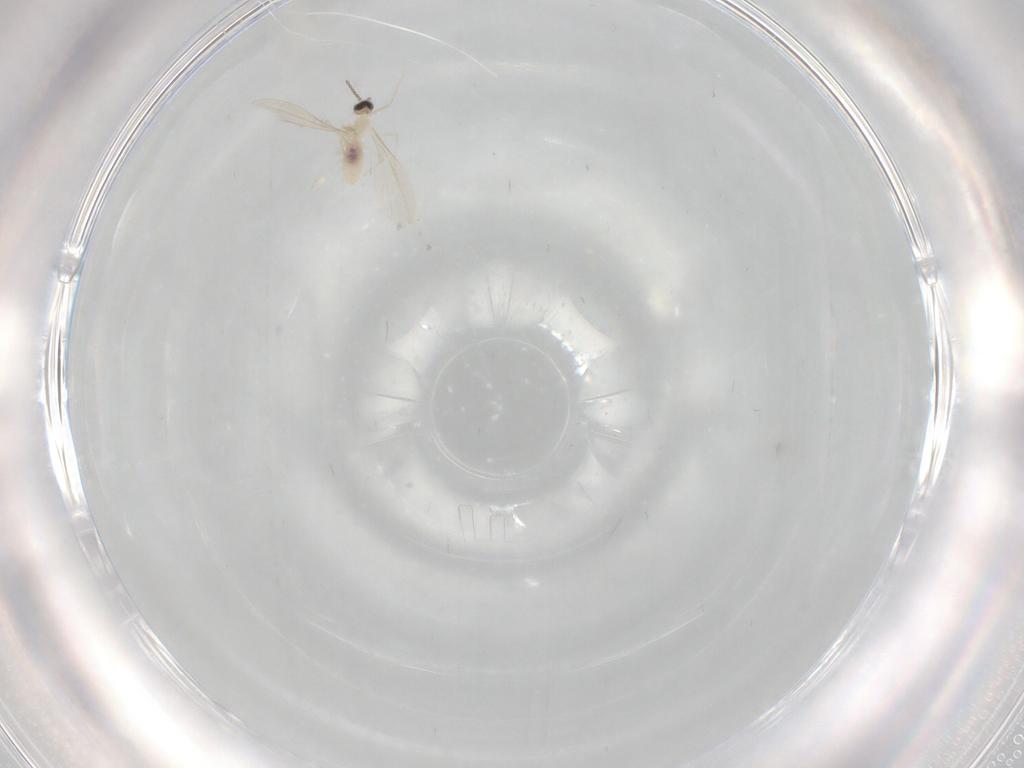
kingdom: Animalia
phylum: Arthropoda
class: Insecta
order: Diptera
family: Cecidomyiidae
